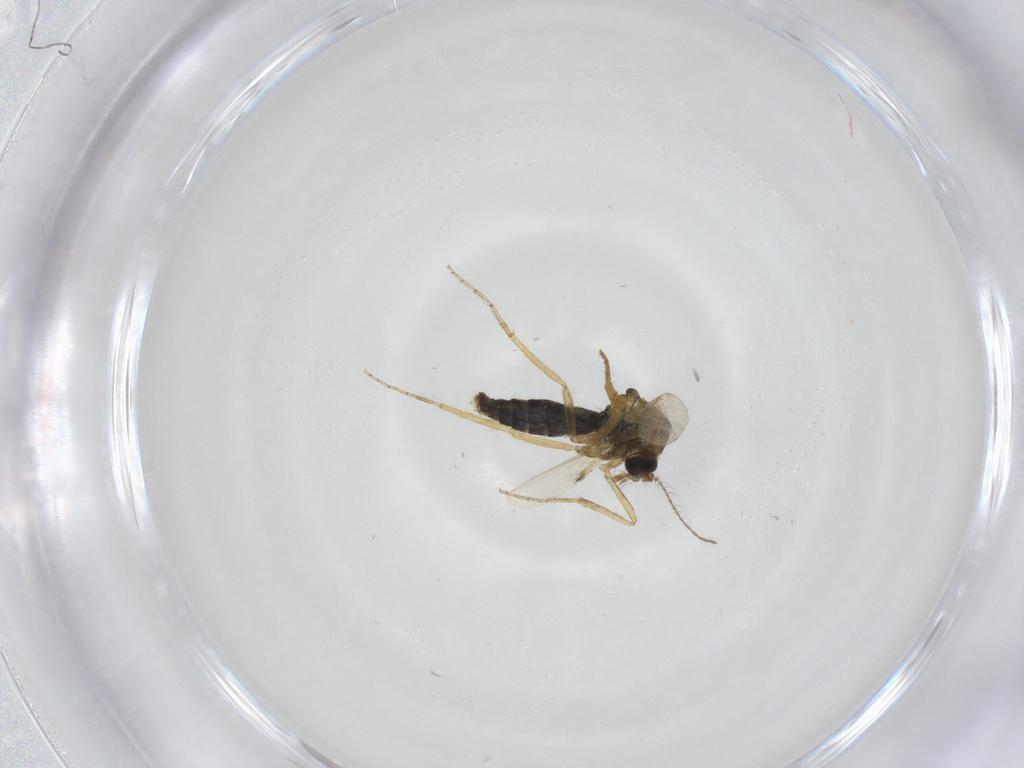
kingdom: Animalia
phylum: Arthropoda
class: Insecta
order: Diptera
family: Ceratopogonidae
